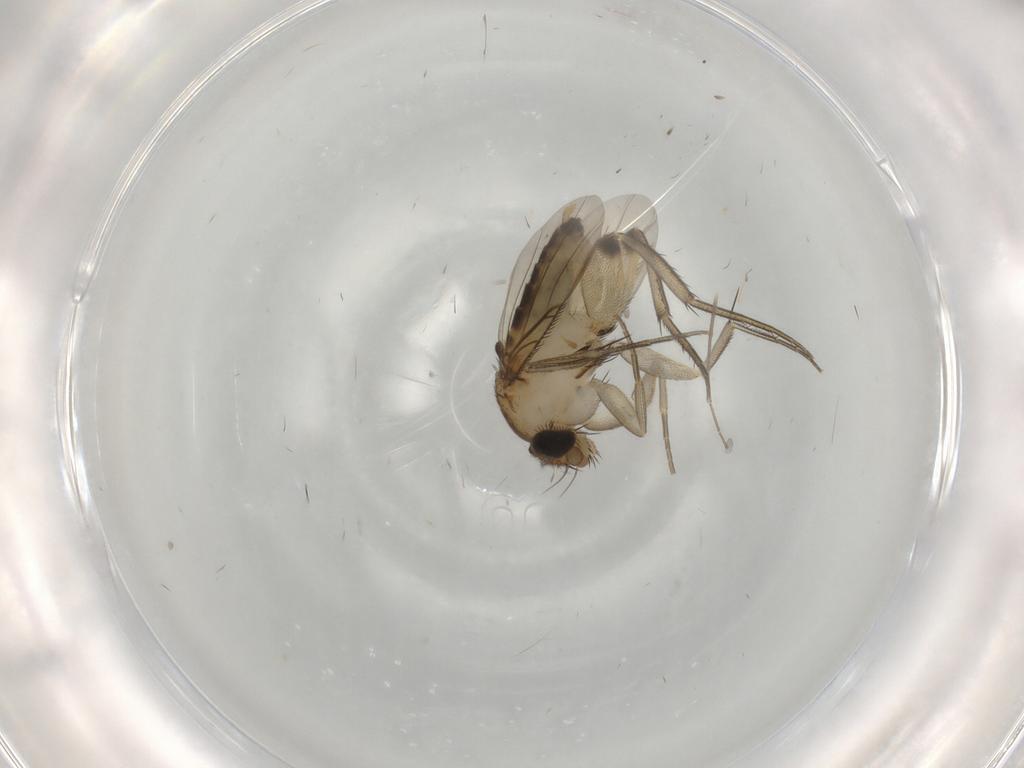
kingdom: Animalia
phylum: Arthropoda
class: Insecta
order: Diptera
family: Phoridae
